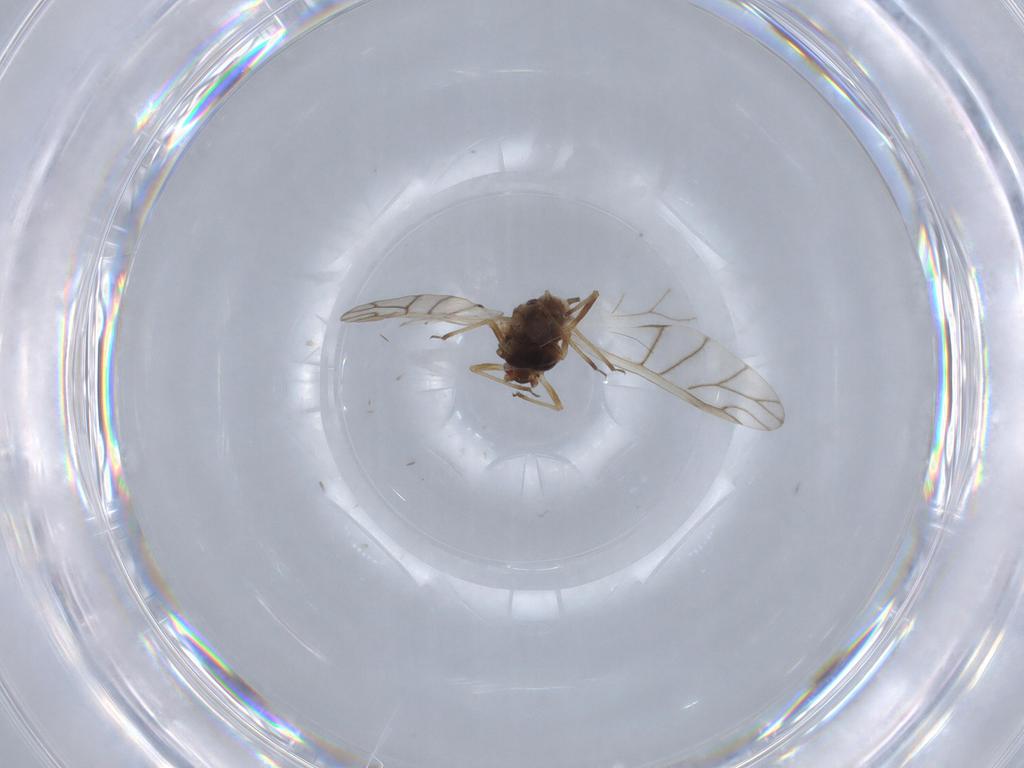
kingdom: Animalia
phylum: Arthropoda
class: Insecta
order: Hemiptera
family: Aphididae
